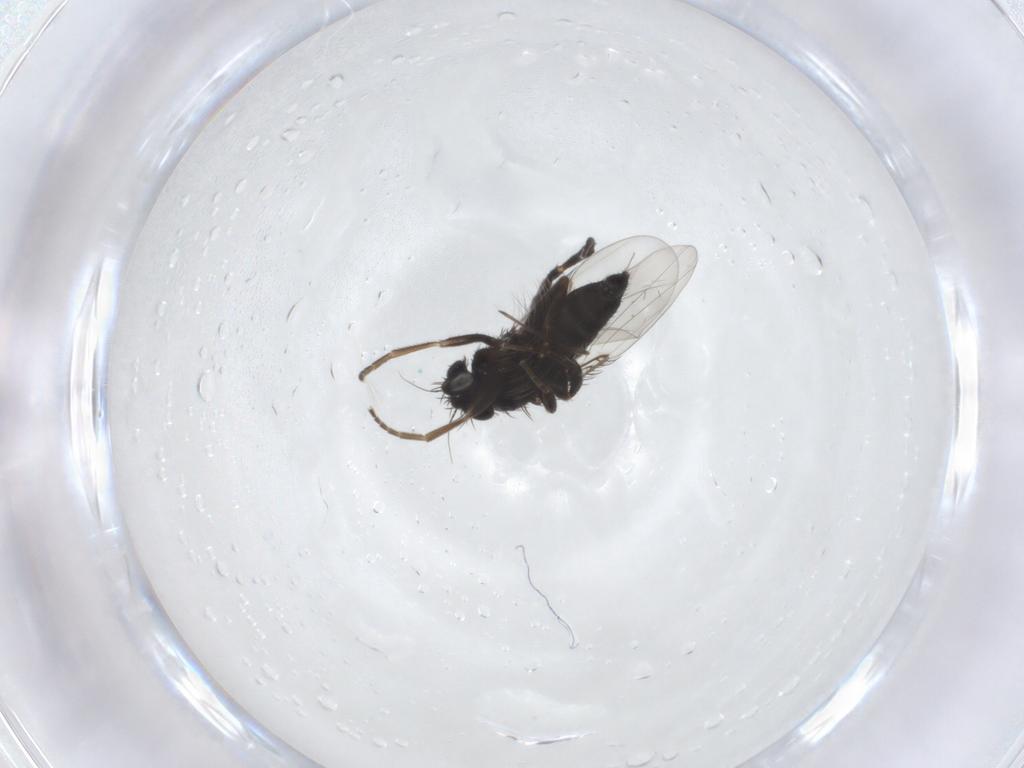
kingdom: Animalia
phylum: Arthropoda
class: Insecta
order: Diptera
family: Phoridae
